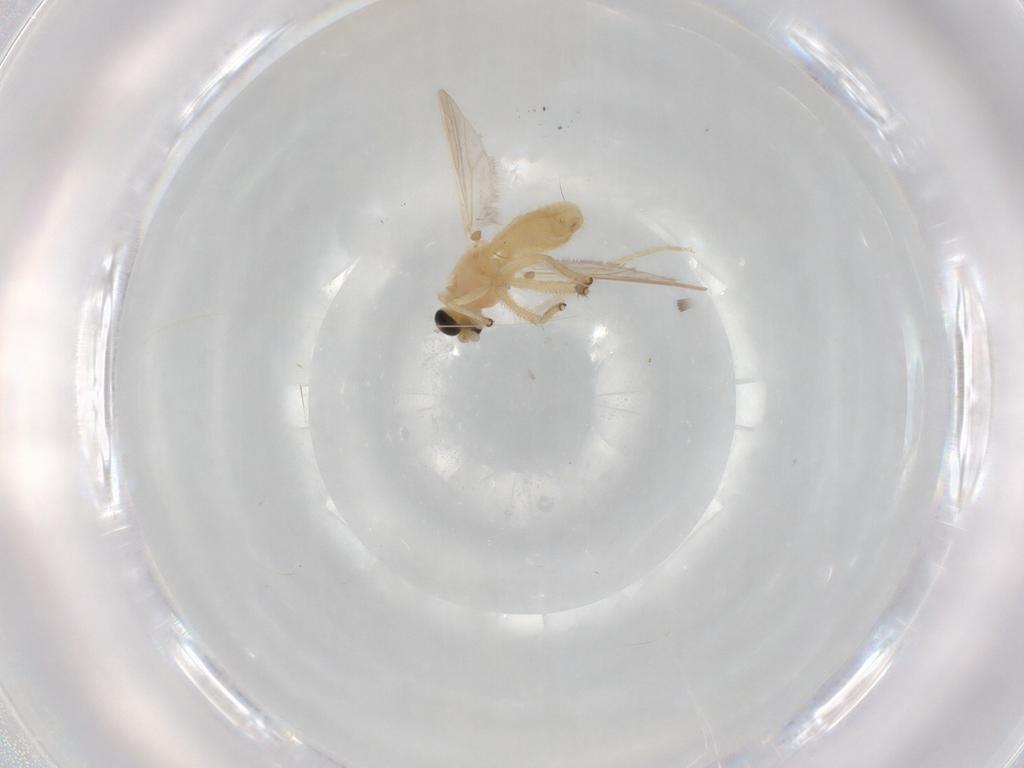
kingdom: Animalia
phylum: Arthropoda
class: Insecta
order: Diptera
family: Chironomidae
